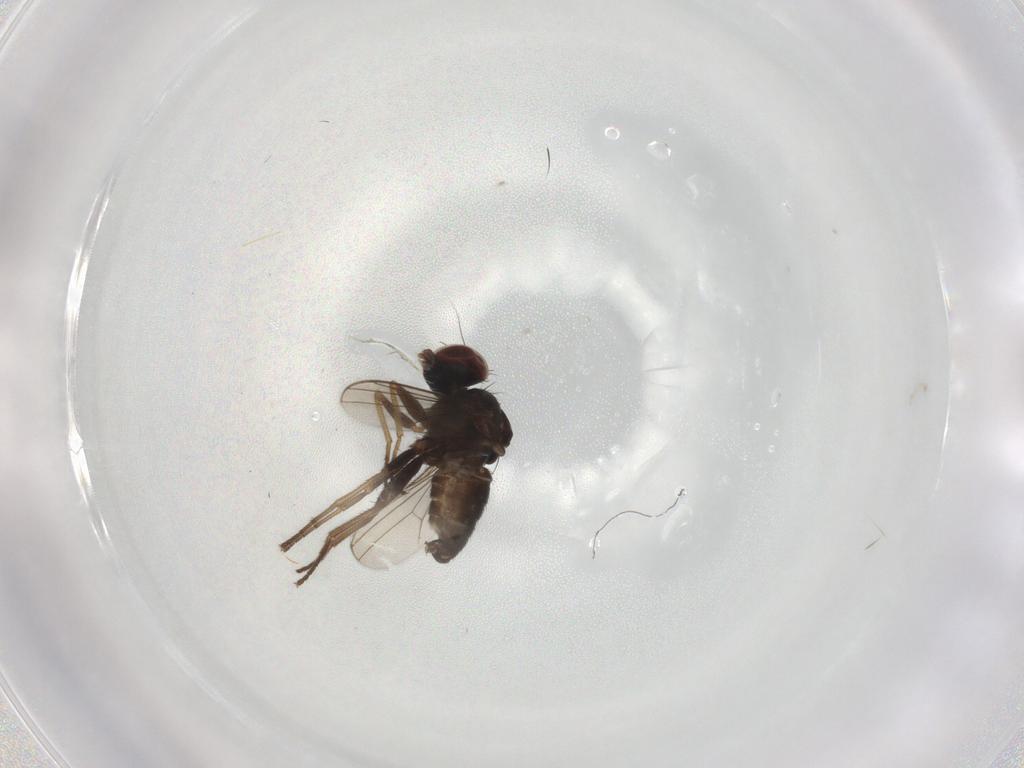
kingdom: Animalia
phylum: Arthropoda
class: Insecta
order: Diptera
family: Dolichopodidae
